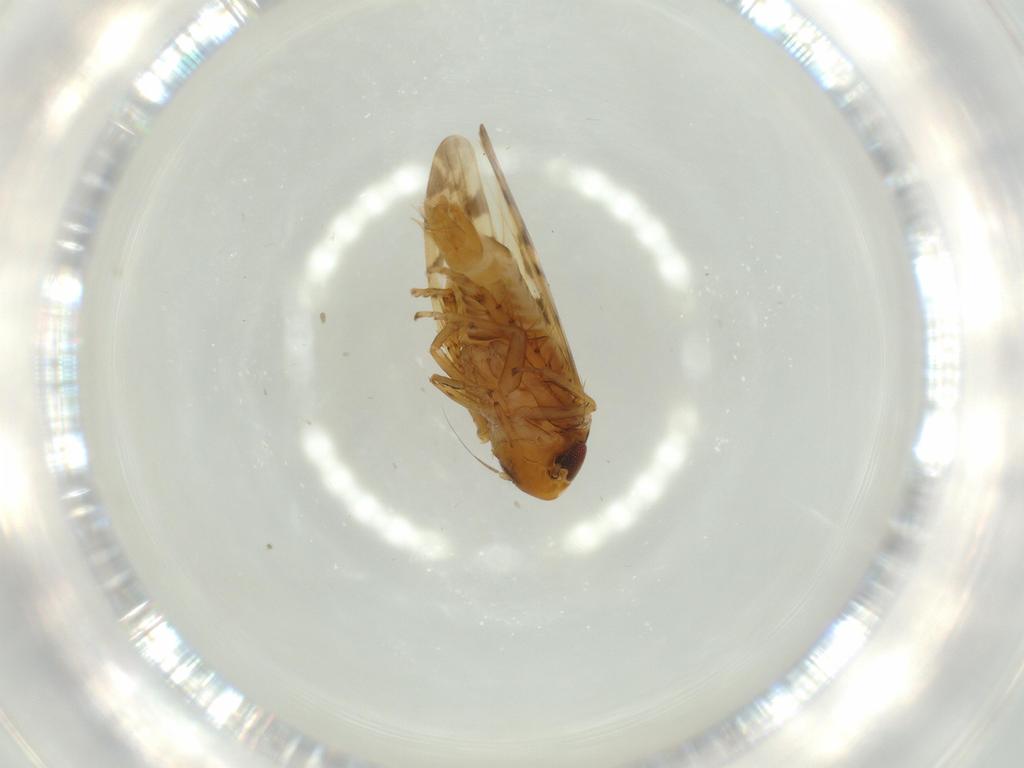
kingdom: Animalia
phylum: Arthropoda
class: Insecta
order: Hemiptera
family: Cicadellidae
